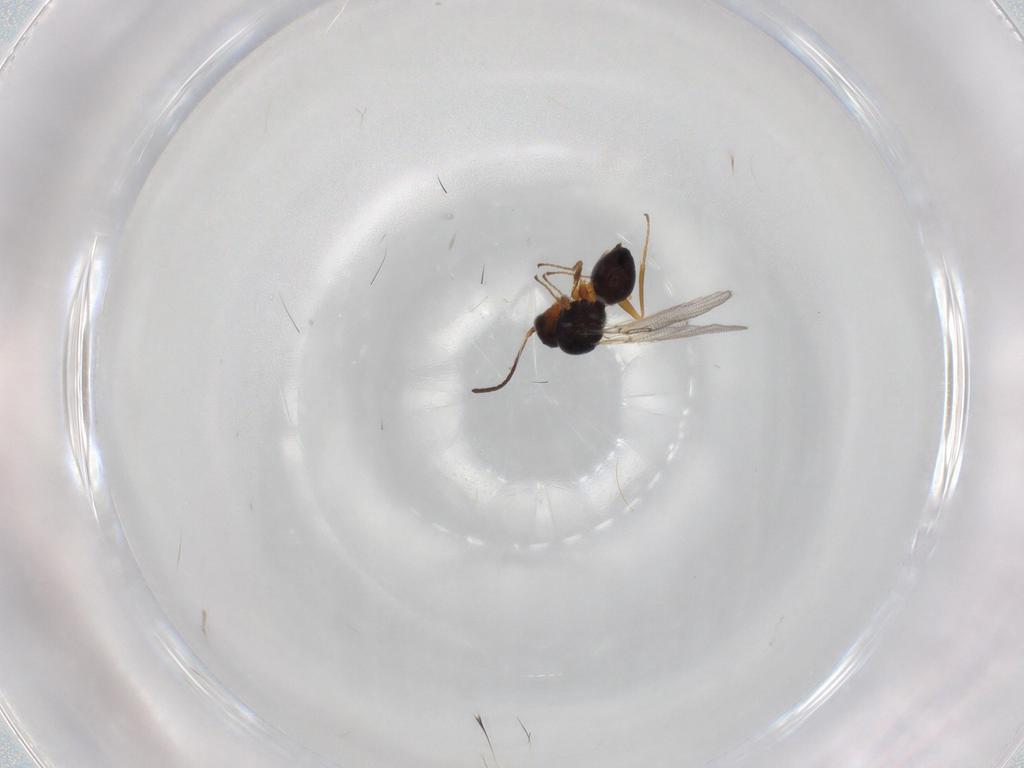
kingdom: Animalia
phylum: Arthropoda
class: Insecta
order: Hymenoptera
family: Figitidae
